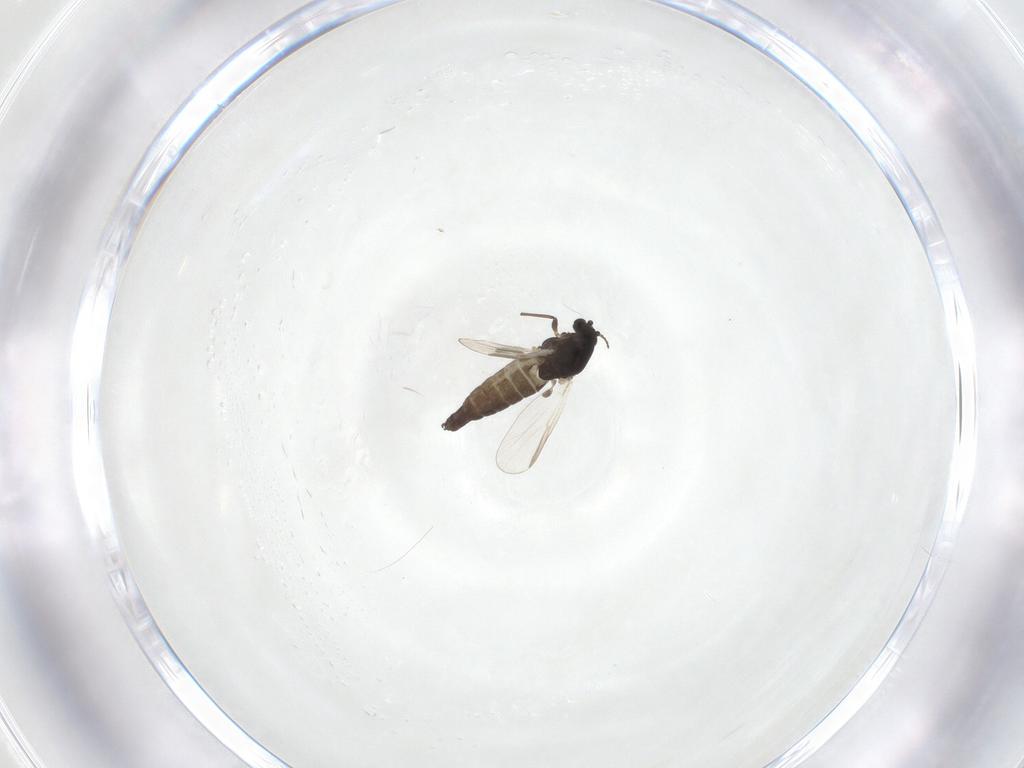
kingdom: Animalia
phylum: Arthropoda
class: Insecta
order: Diptera
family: Chironomidae
